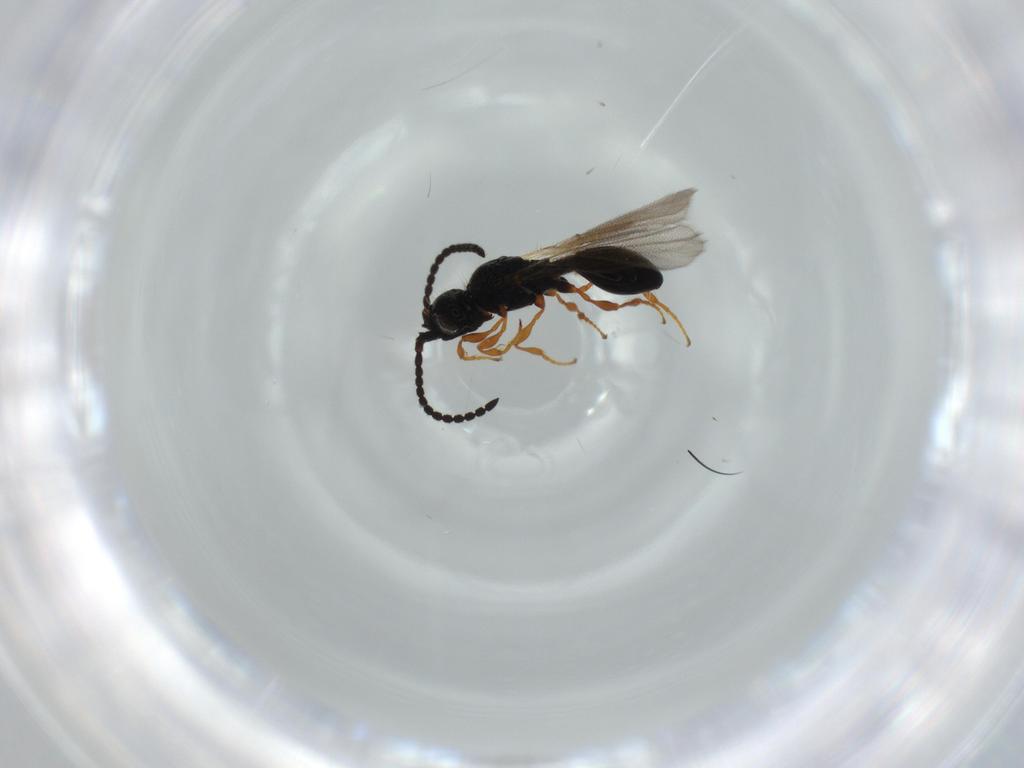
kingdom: Animalia
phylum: Arthropoda
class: Insecta
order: Hymenoptera
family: Diapriidae
